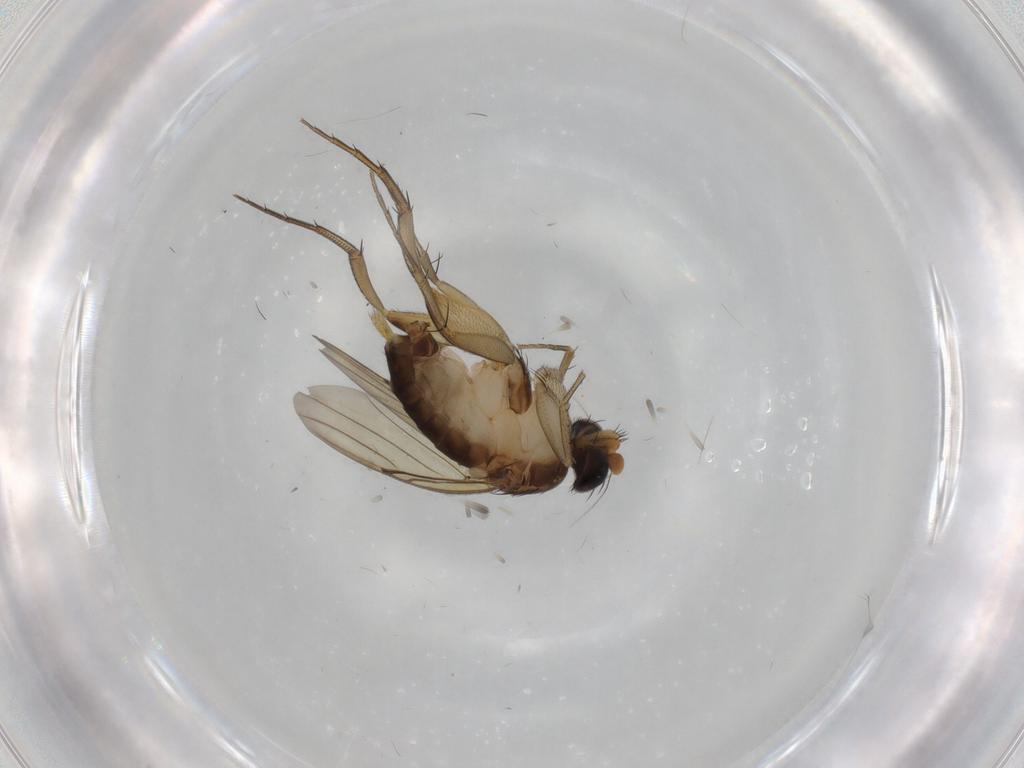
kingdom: Animalia
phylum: Arthropoda
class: Insecta
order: Diptera
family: Phoridae
